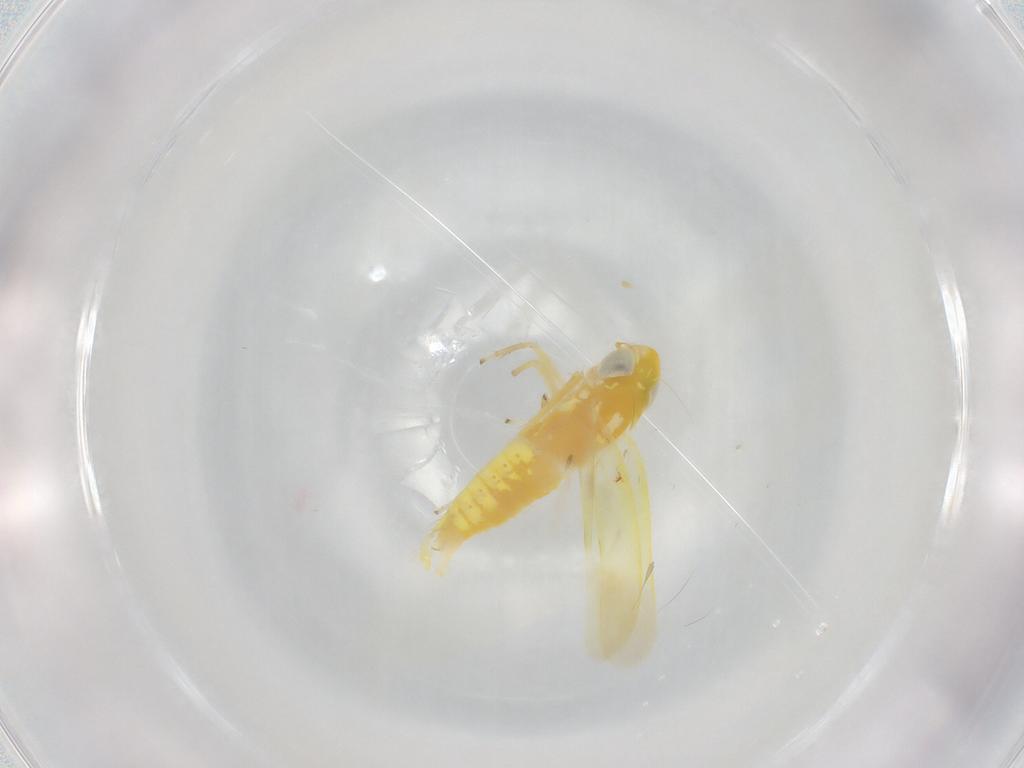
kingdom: Animalia
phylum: Arthropoda
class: Insecta
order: Hemiptera
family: Cicadellidae
